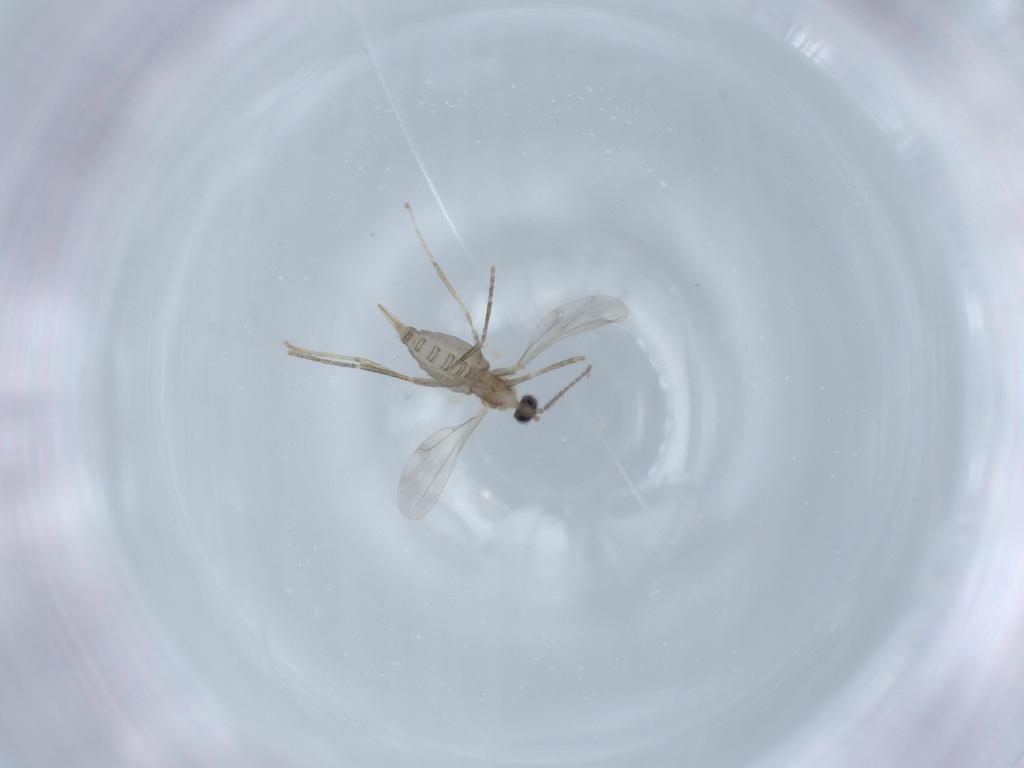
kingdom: Animalia
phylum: Arthropoda
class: Insecta
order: Diptera
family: Cecidomyiidae
